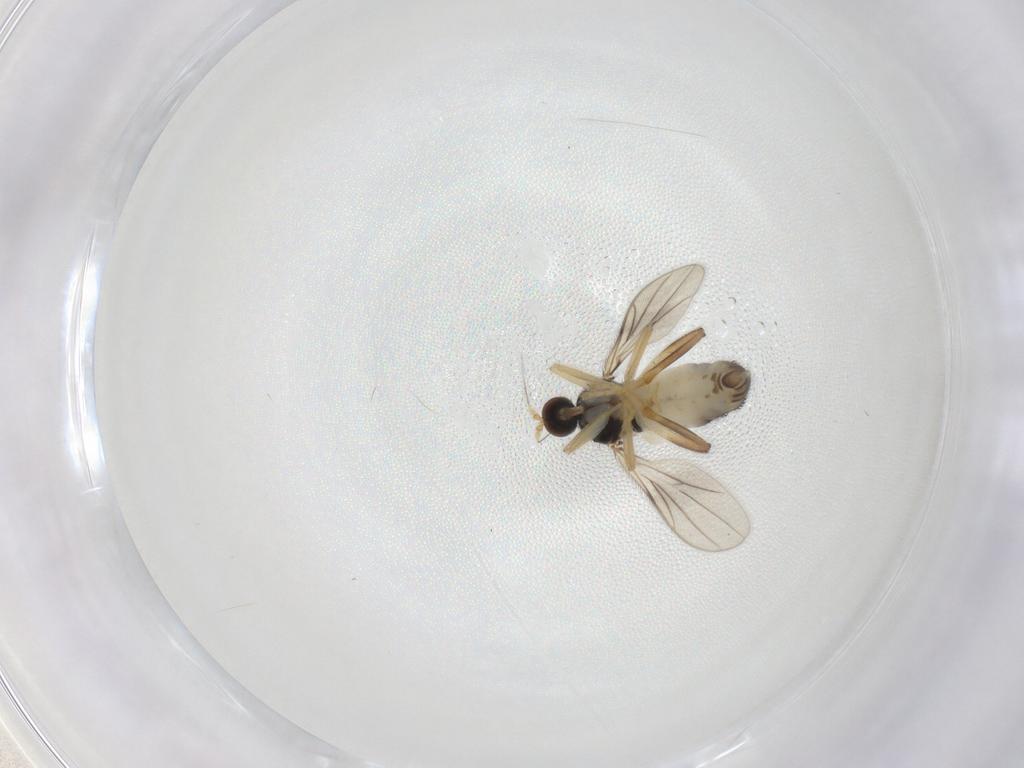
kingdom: Animalia
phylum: Arthropoda
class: Insecta
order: Diptera
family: Hybotidae
